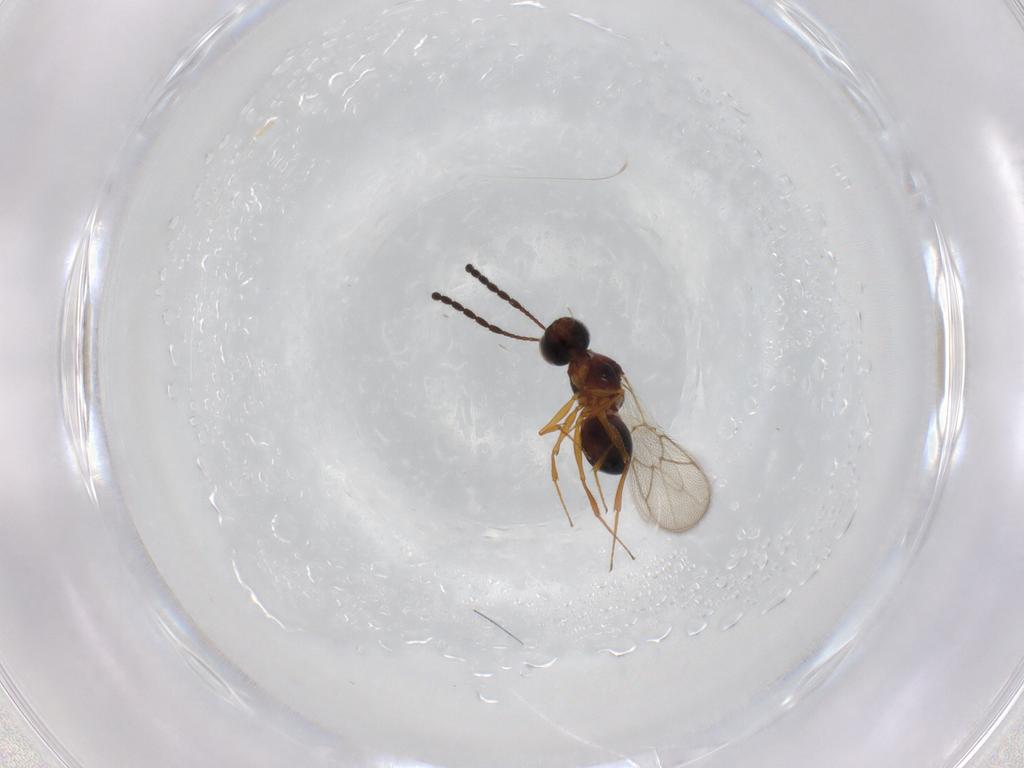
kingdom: Animalia
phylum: Arthropoda
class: Insecta
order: Hymenoptera
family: Figitidae
